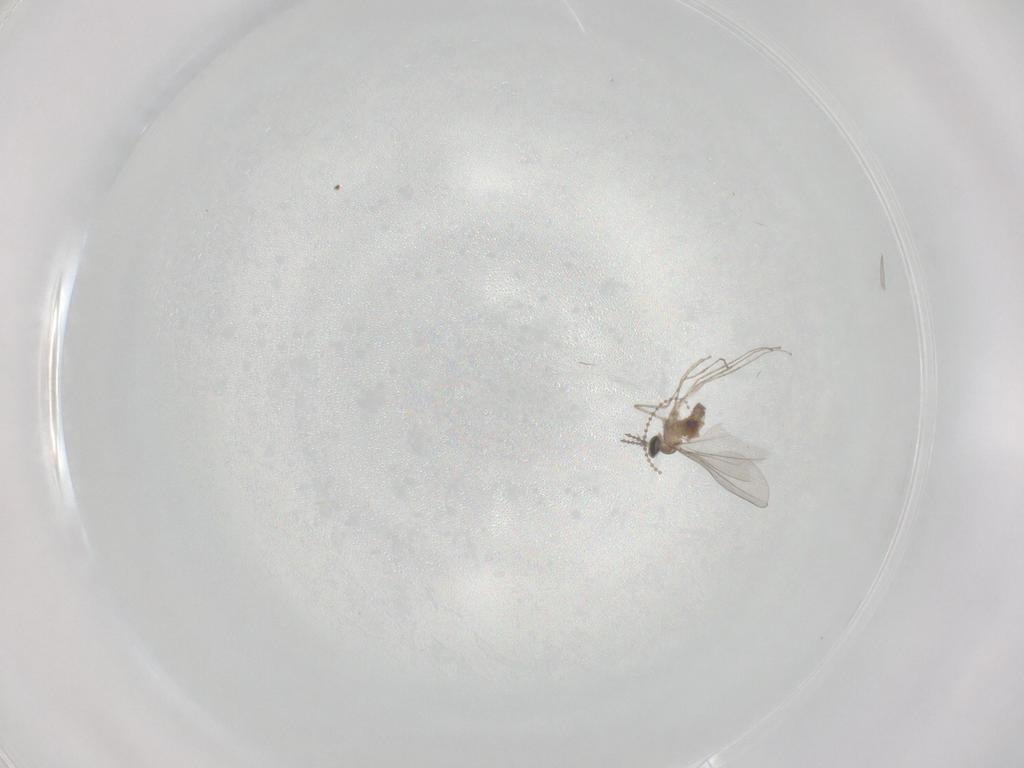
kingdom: Animalia
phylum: Arthropoda
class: Insecta
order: Diptera
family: Cecidomyiidae
